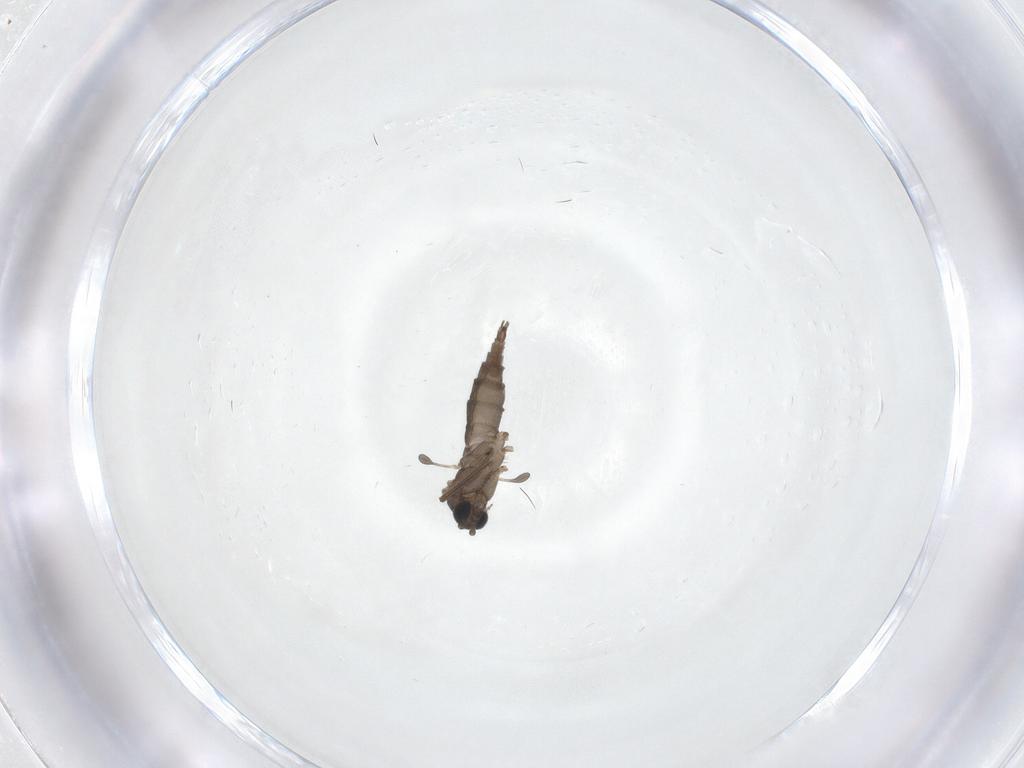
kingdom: Animalia
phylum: Arthropoda
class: Insecta
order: Diptera
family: Sciaridae
